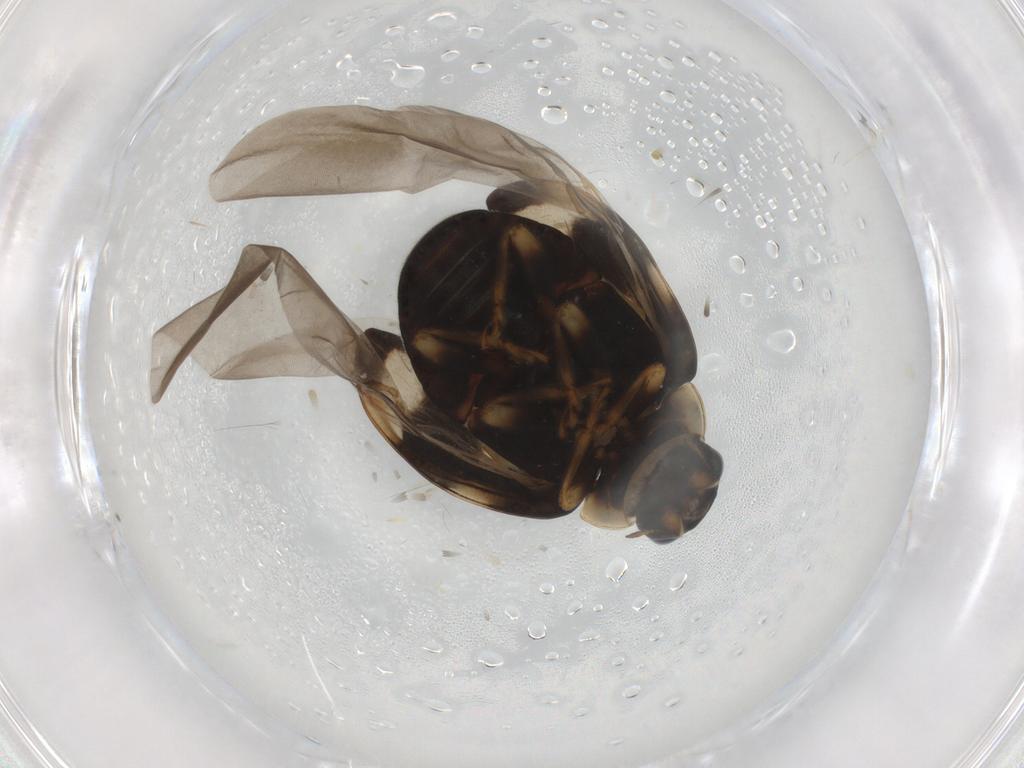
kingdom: Animalia
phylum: Arthropoda
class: Insecta
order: Coleoptera
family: Coccinellidae
